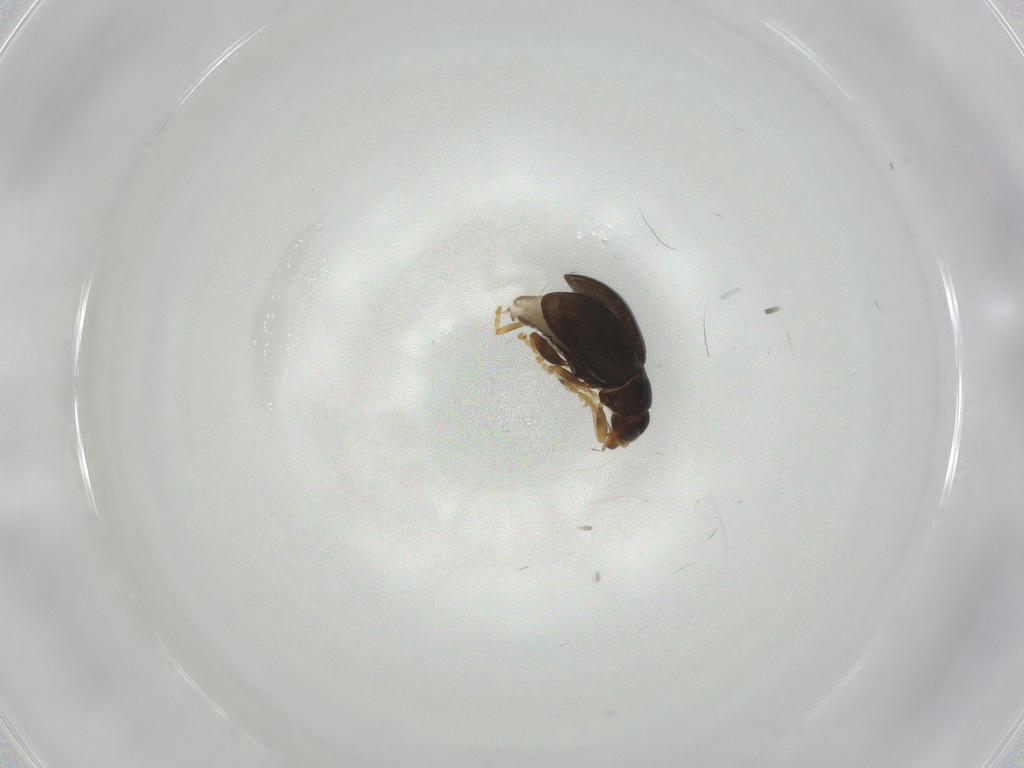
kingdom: Animalia
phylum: Arthropoda
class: Insecta
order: Coleoptera
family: Chrysomelidae
